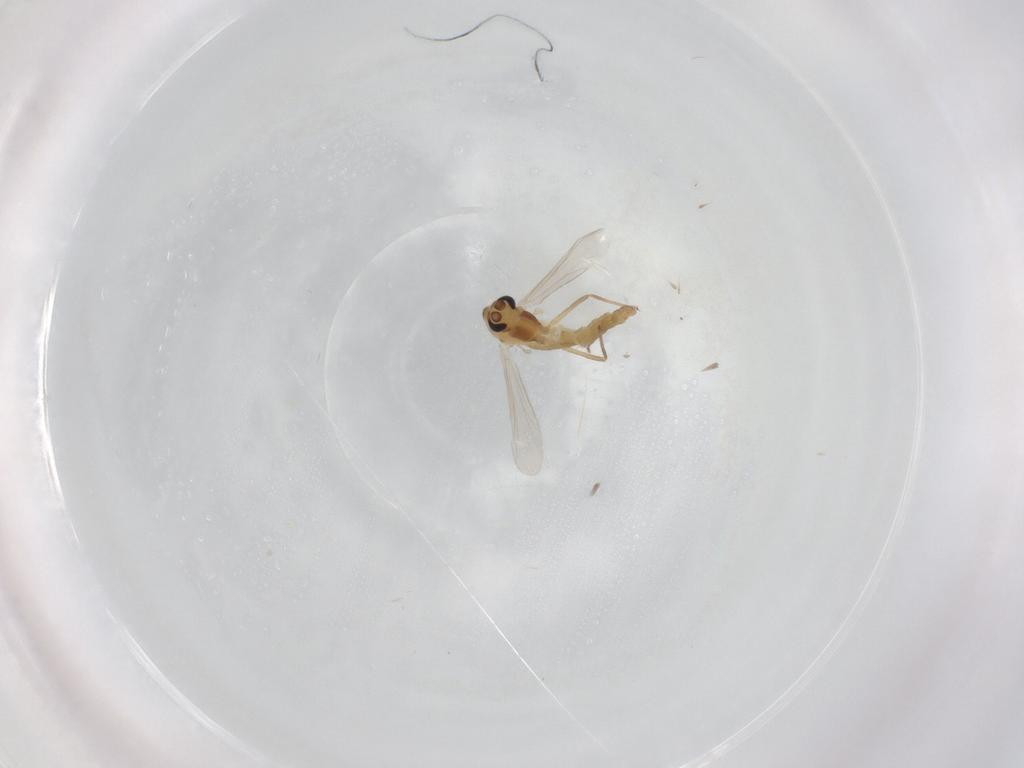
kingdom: Animalia
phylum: Arthropoda
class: Insecta
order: Diptera
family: Chironomidae
